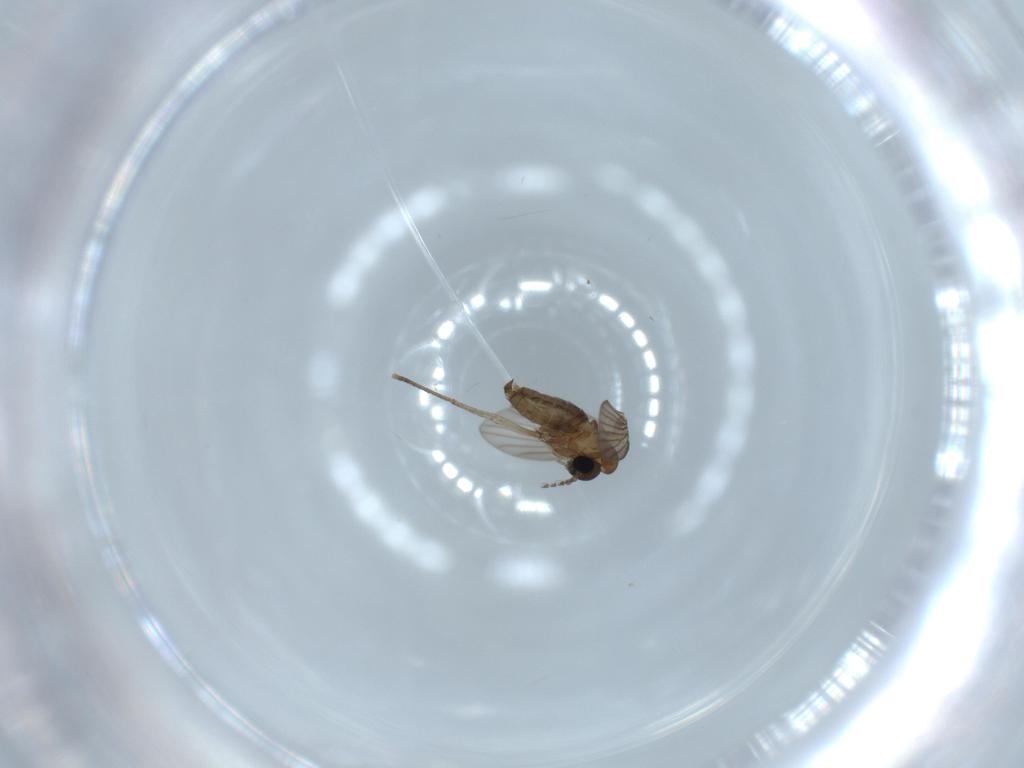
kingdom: Animalia
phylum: Arthropoda
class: Insecta
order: Diptera
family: Psychodidae
